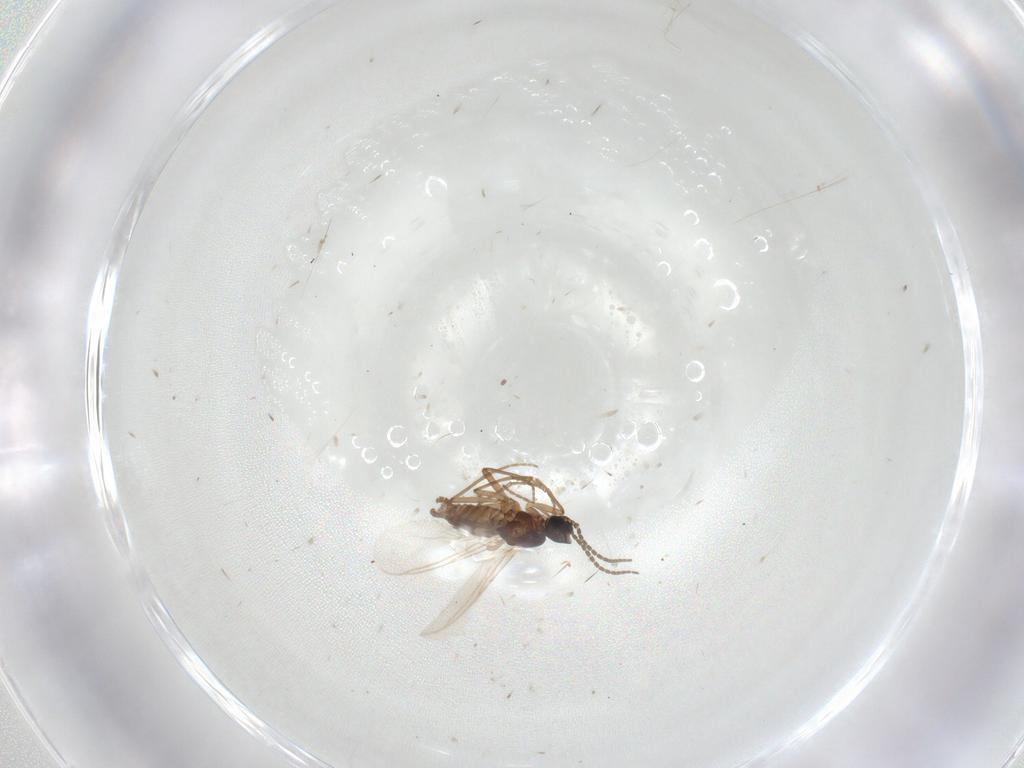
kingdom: Animalia
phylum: Arthropoda
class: Insecta
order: Diptera
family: Sciaridae
